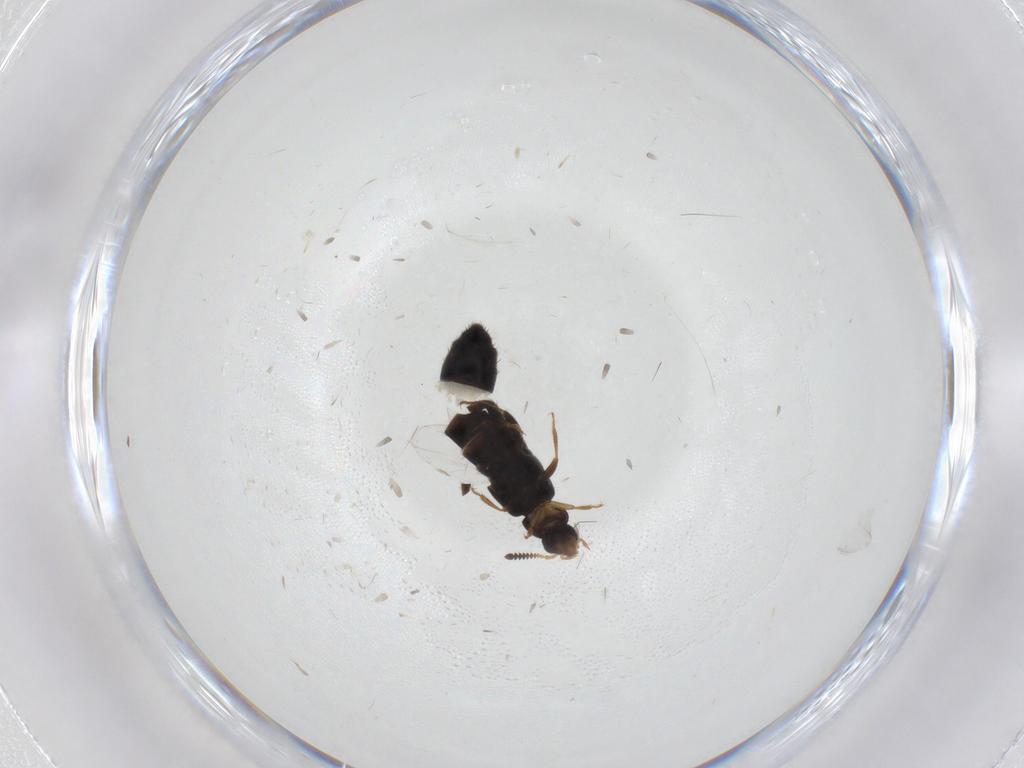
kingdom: Animalia
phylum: Arthropoda
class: Insecta
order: Coleoptera
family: Staphylinidae
